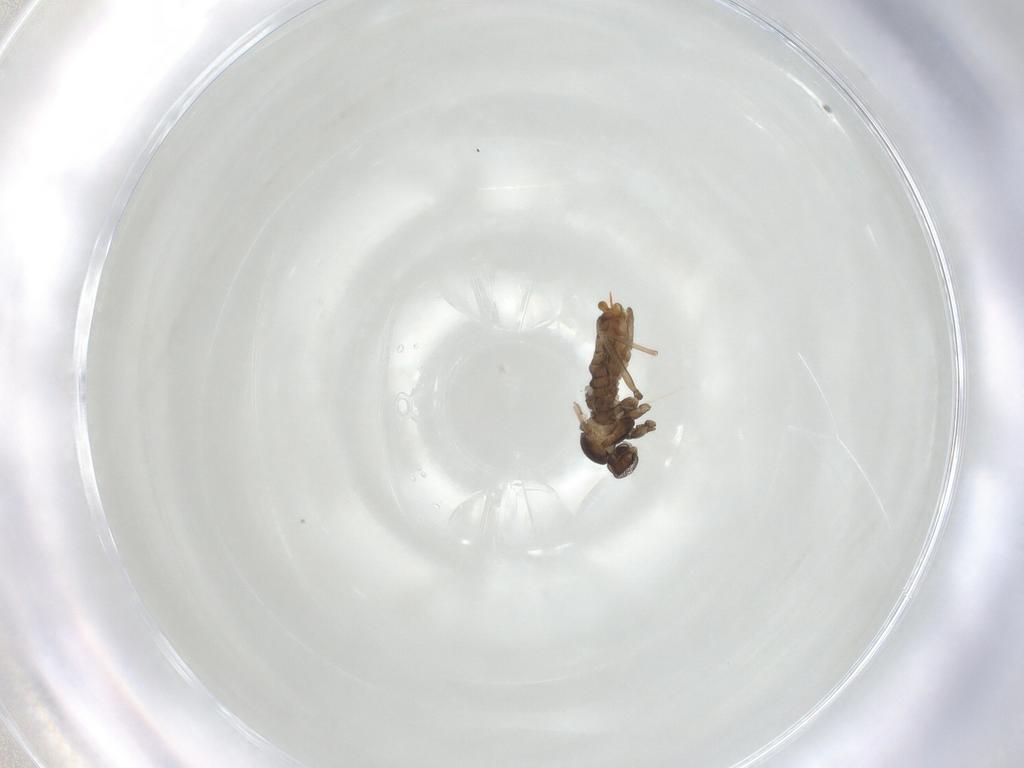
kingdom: Animalia
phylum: Arthropoda
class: Insecta
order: Diptera
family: Cecidomyiidae
